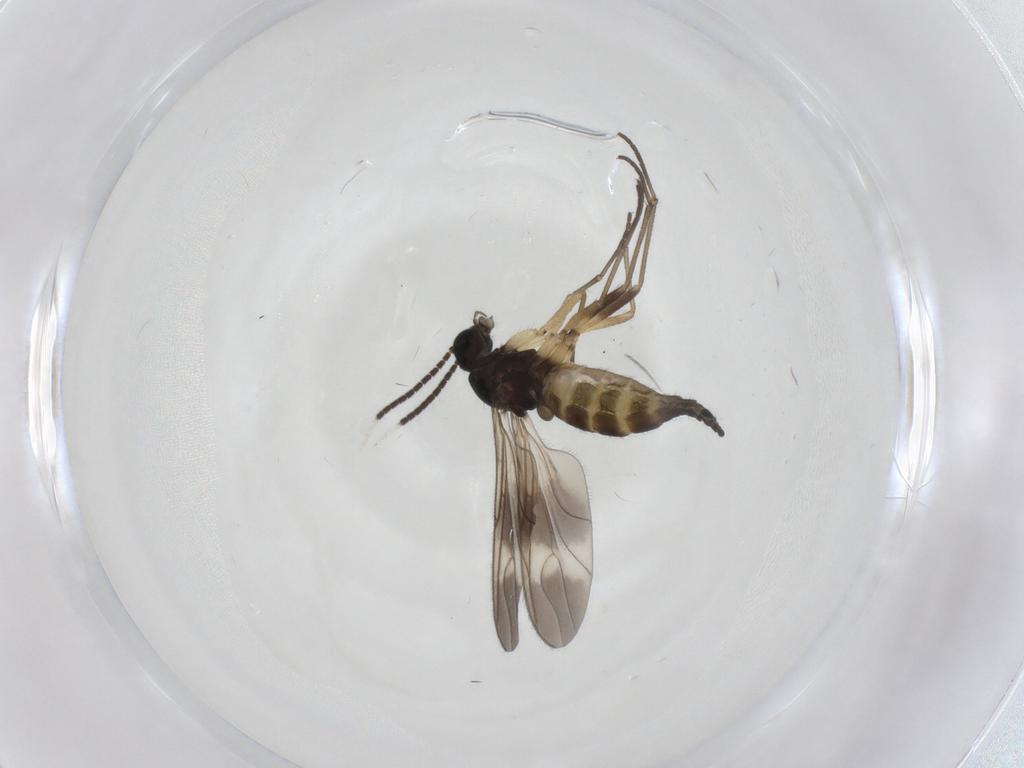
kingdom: Animalia
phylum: Arthropoda
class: Insecta
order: Diptera
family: Sciaridae
